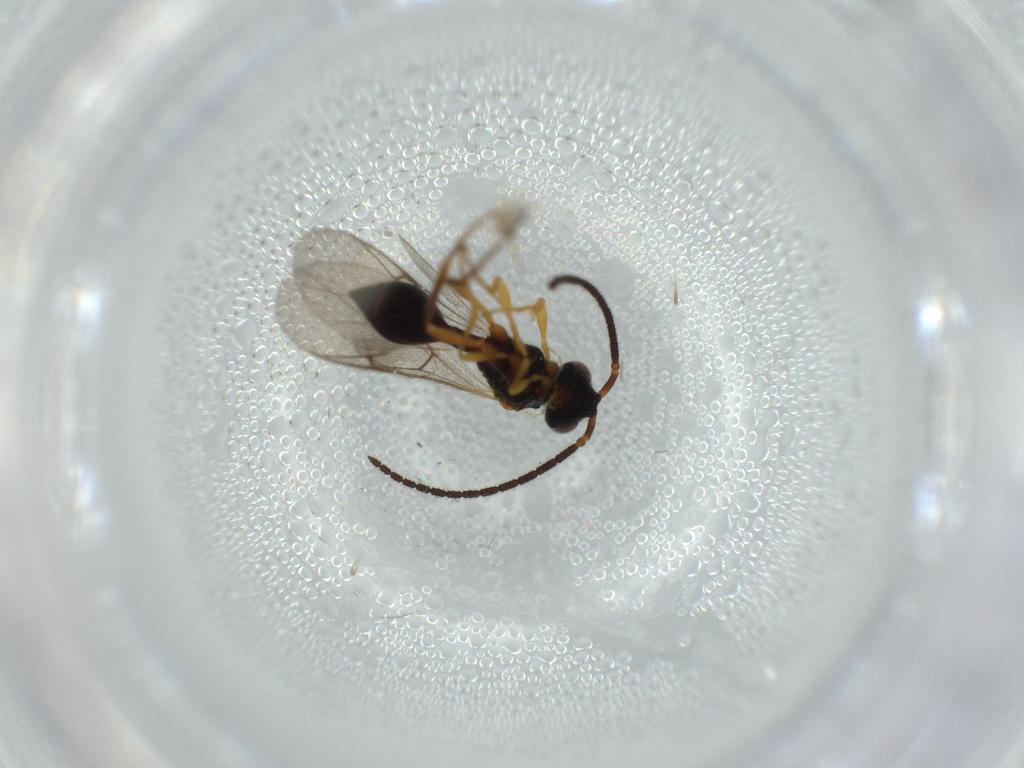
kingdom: Animalia
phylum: Arthropoda
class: Insecta
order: Hymenoptera
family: Diapriidae
